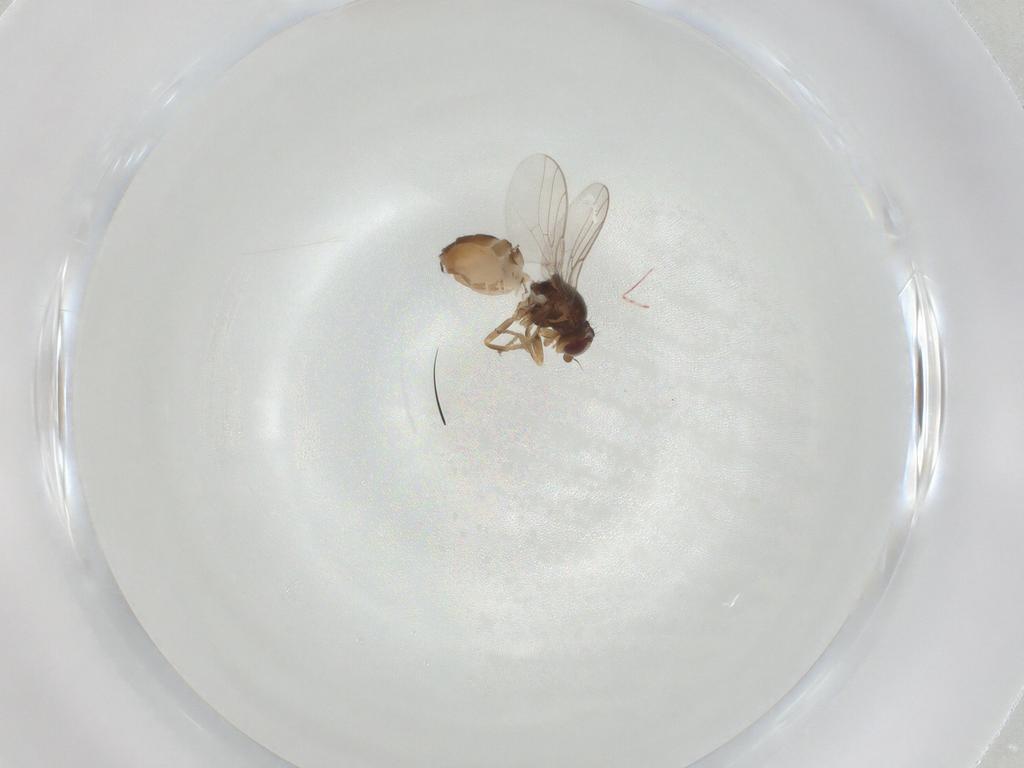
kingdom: Animalia
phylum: Arthropoda
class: Insecta
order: Diptera
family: Chloropidae
